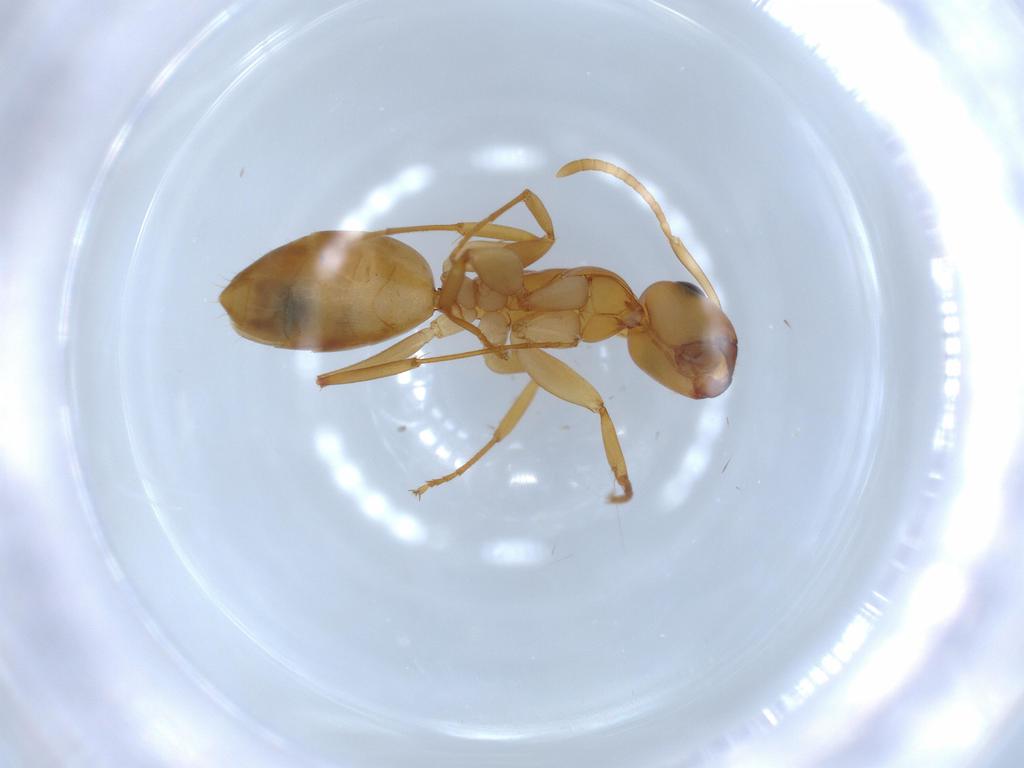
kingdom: Animalia
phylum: Arthropoda
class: Insecta
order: Hymenoptera
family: Formicidae
